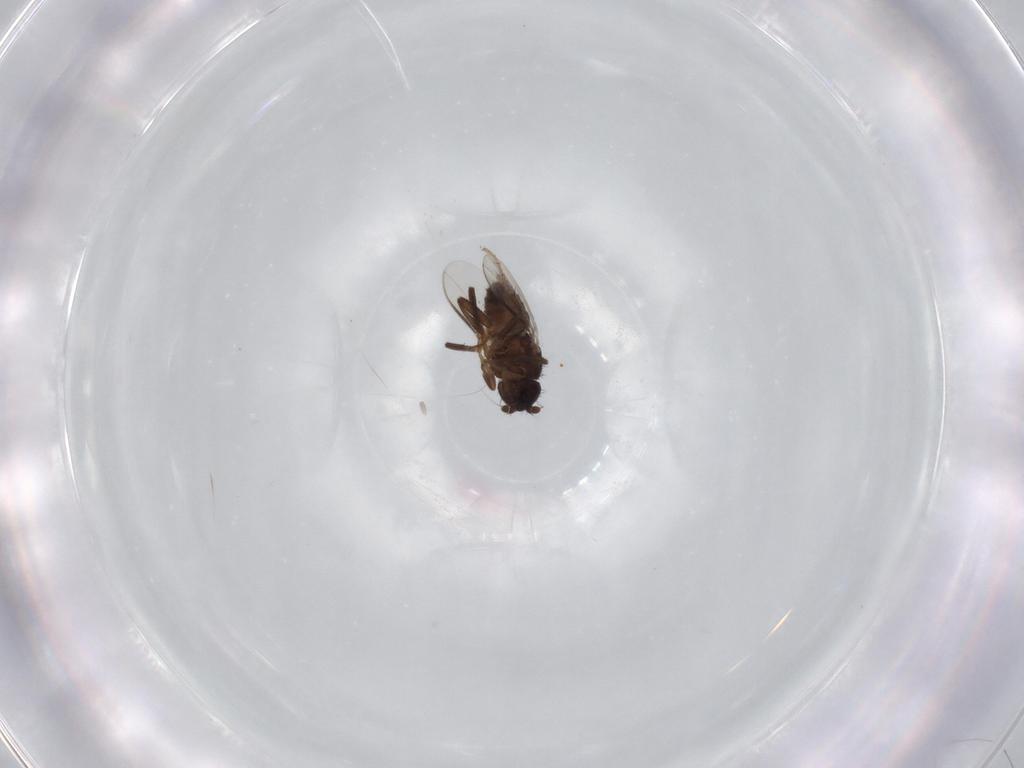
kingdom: Animalia
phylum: Arthropoda
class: Insecta
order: Diptera
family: Sphaeroceridae
